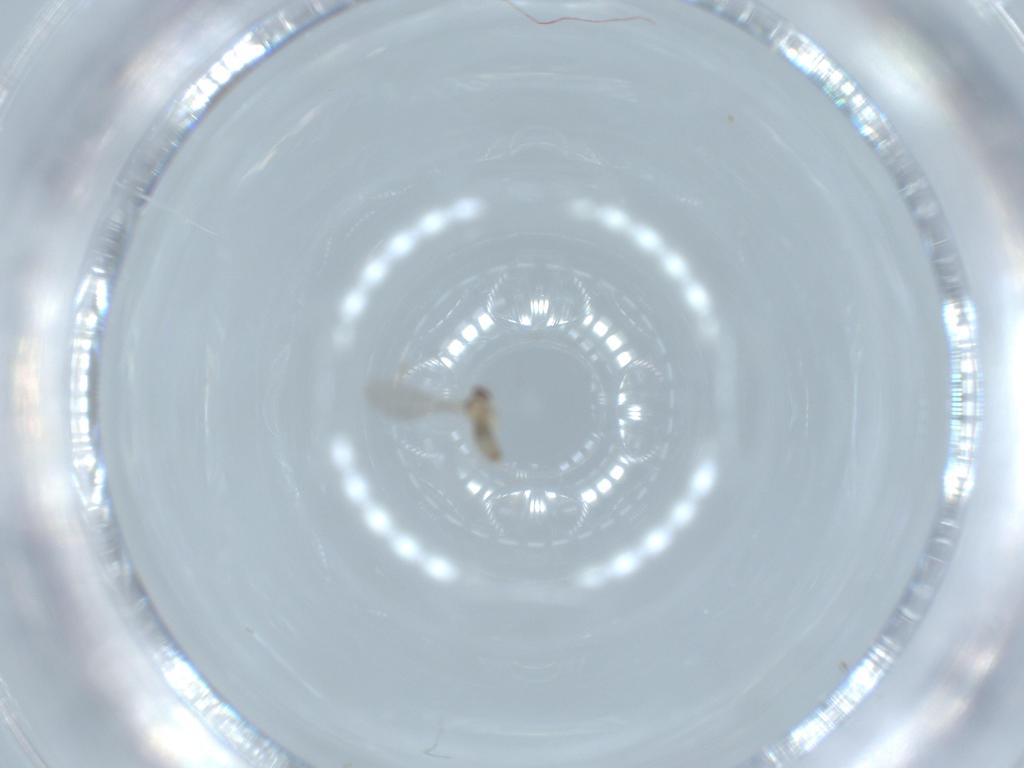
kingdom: Animalia
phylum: Arthropoda
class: Insecta
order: Diptera
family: Cecidomyiidae
